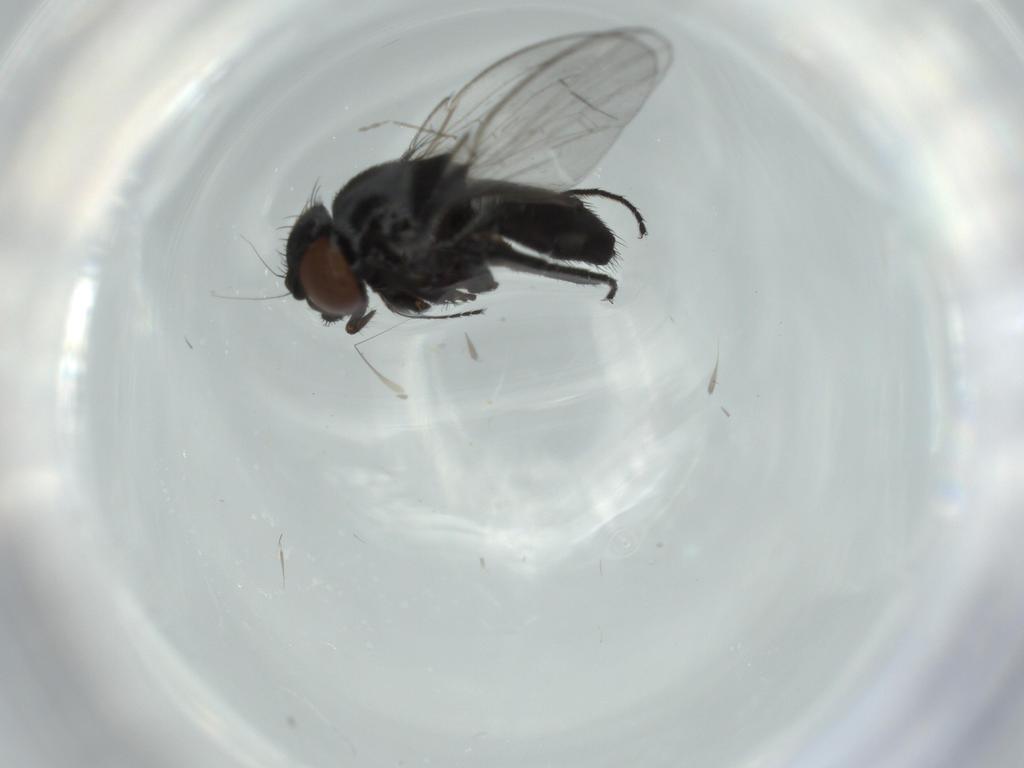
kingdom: Animalia
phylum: Arthropoda
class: Insecta
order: Diptera
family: Milichiidae
